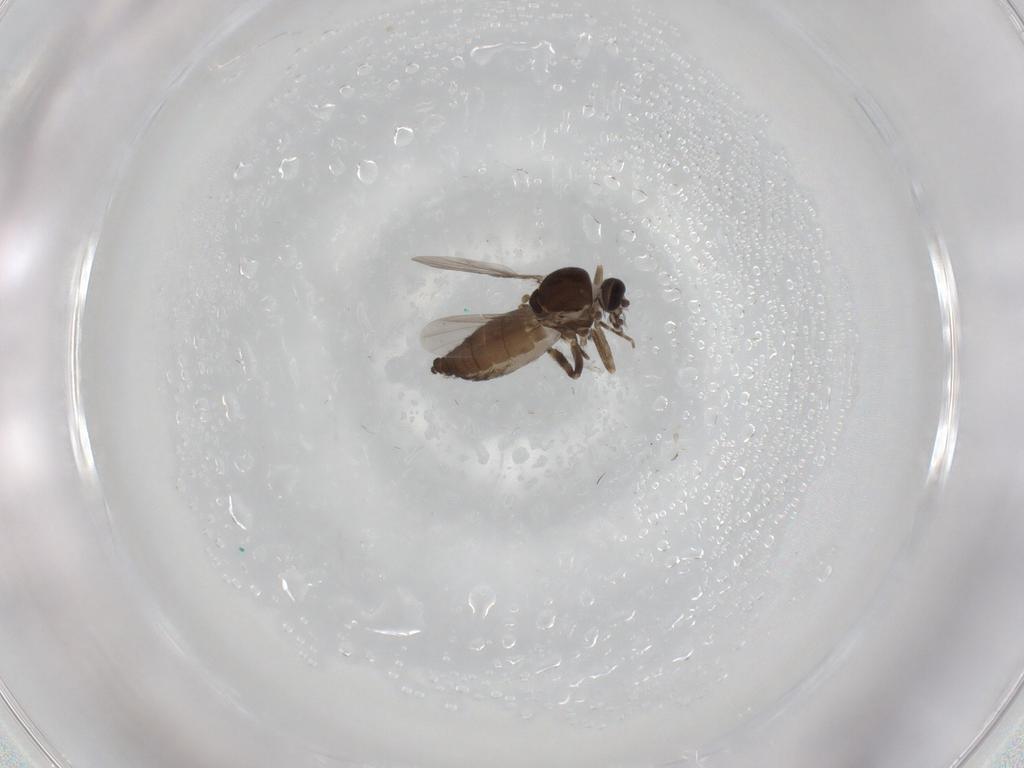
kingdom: Animalia
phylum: Arthropoda
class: Insecta
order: Diptera
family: Ceratopogonidae
